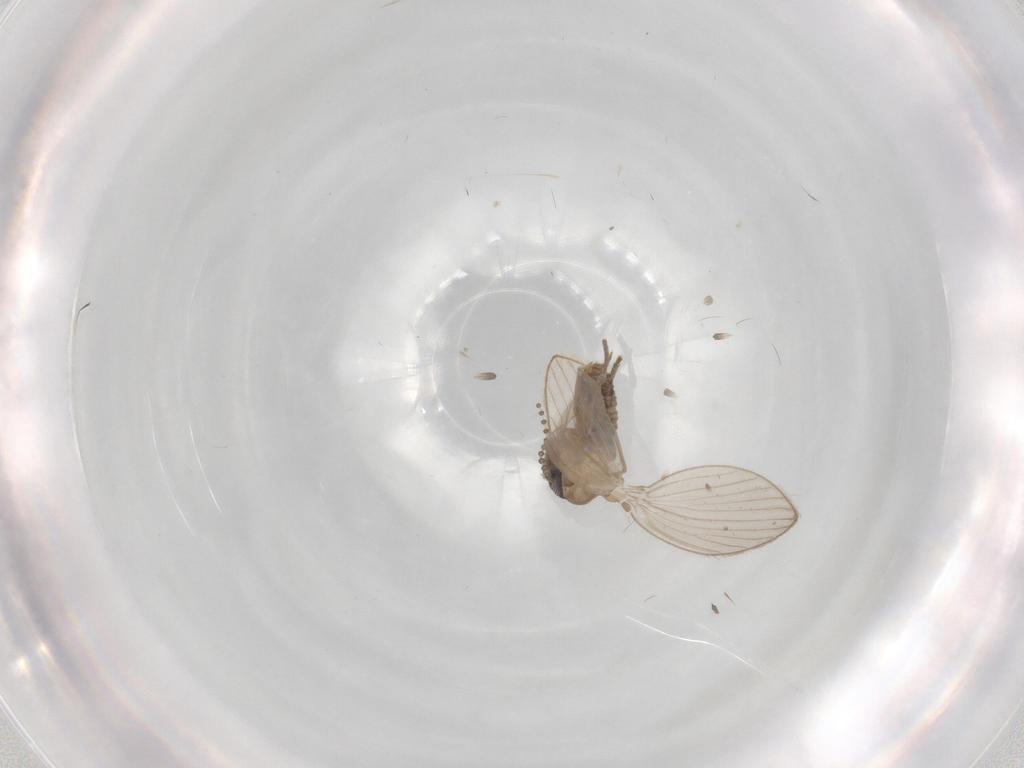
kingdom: Animalia
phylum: Arthropoda
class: Insecta
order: Diptera
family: Psychodidae
